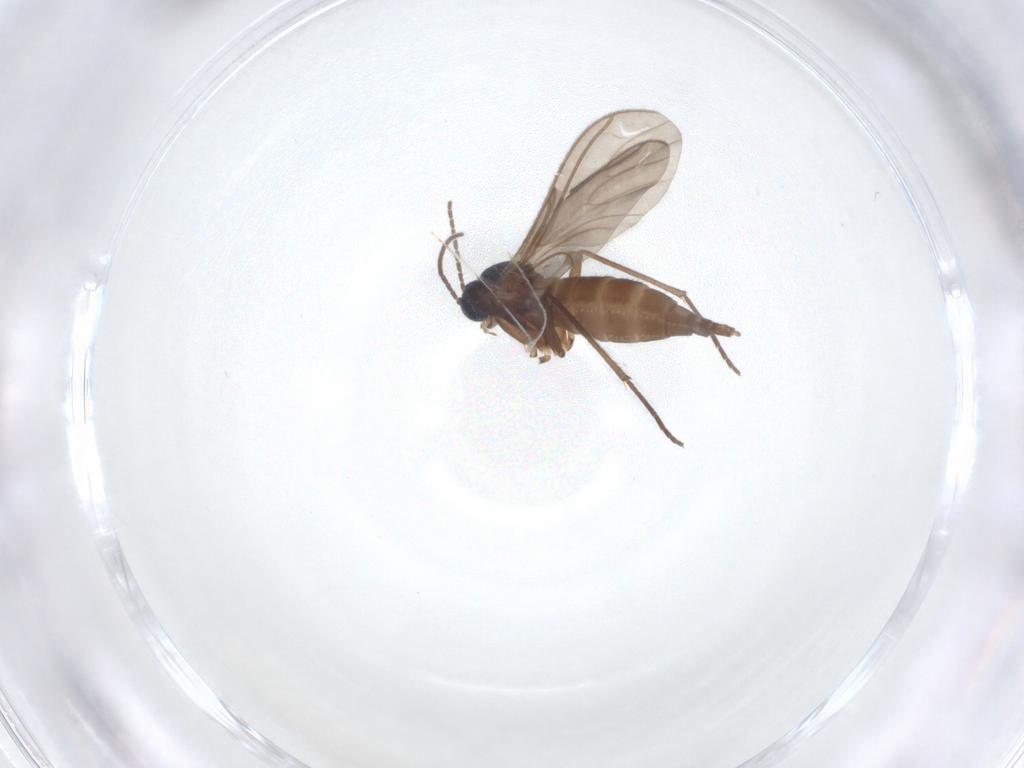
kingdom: Animalia
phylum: Arthropoda
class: Insecta
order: Diptera
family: Sciaridae
